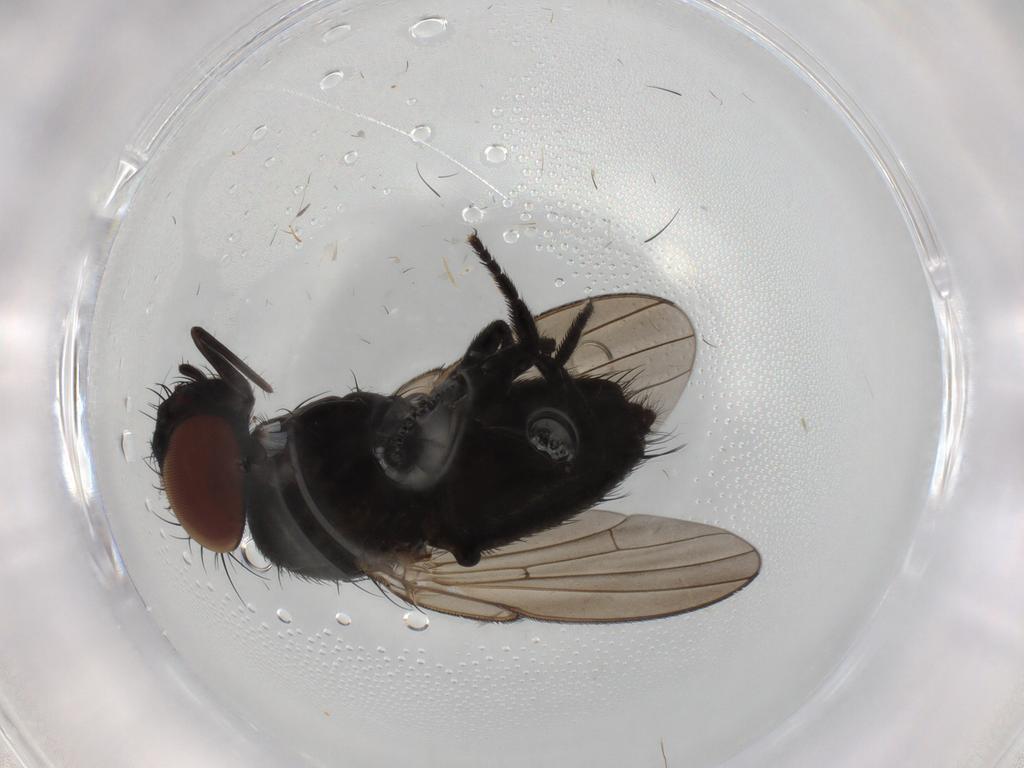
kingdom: Animalia
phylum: Arthropoda
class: Insecta
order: Diptera
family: Milichiidae
